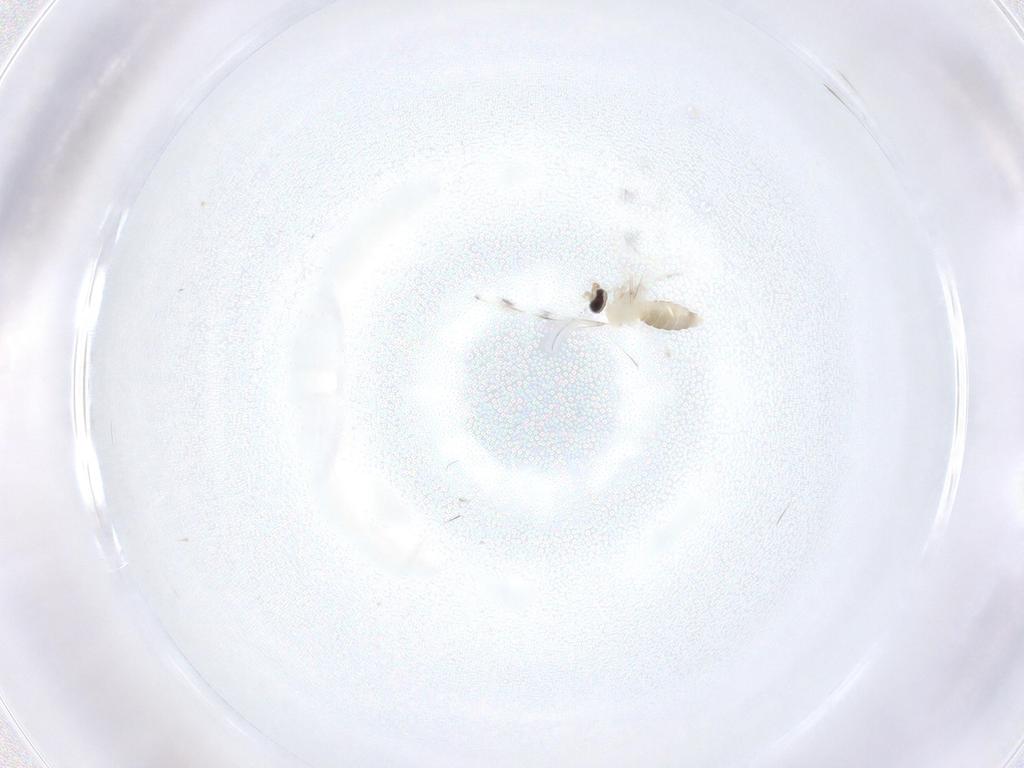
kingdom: Animalia
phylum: Arthropoda
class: Insecta
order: Diptera
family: Cecidomyiidae
